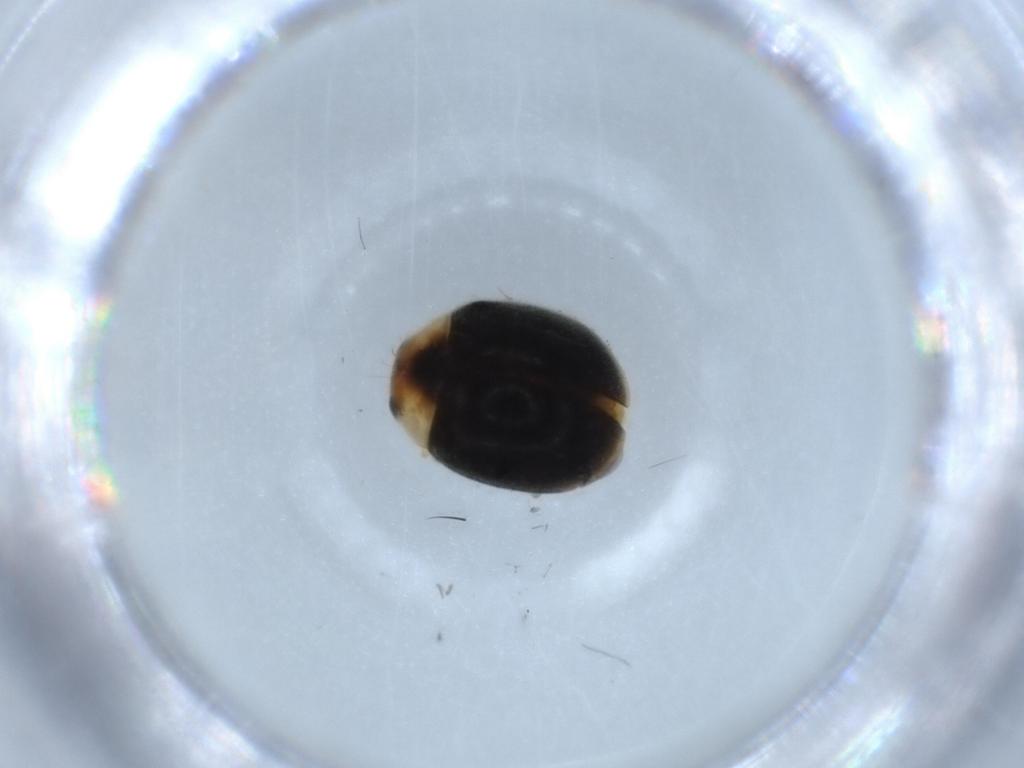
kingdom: Animalia
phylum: Arthropoda
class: Insecta
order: Coleoptera
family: Coccinellidae
